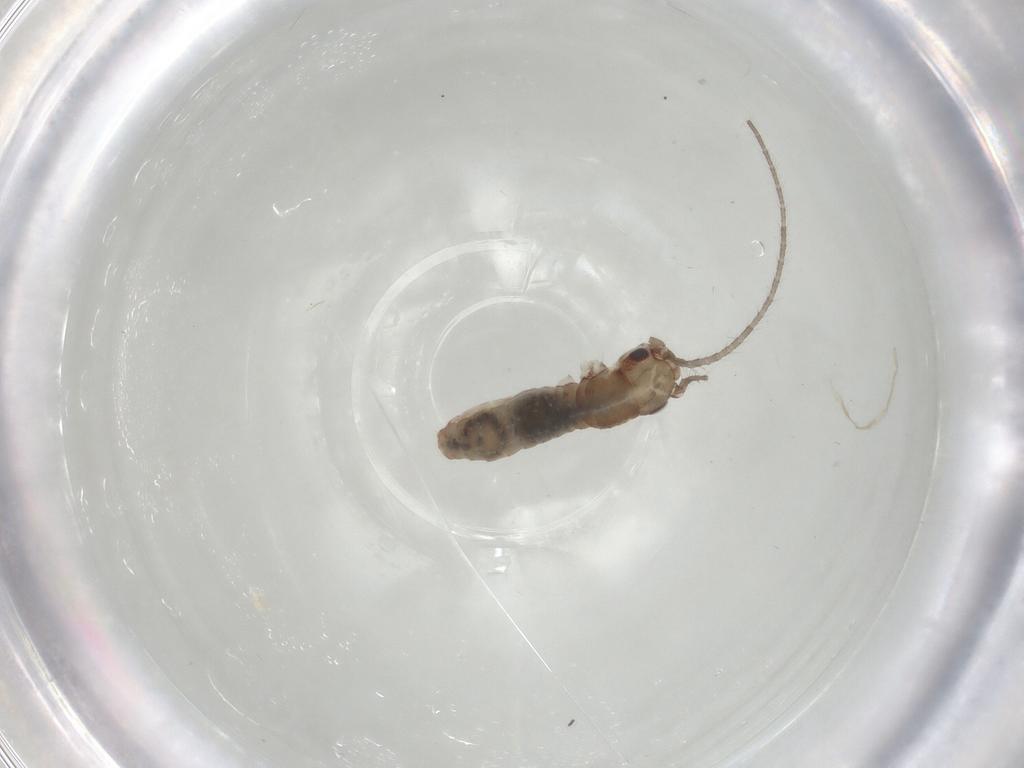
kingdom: Animalia
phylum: Arthropoda
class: Insecta
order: Orthoptera
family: Mogoplistidae
